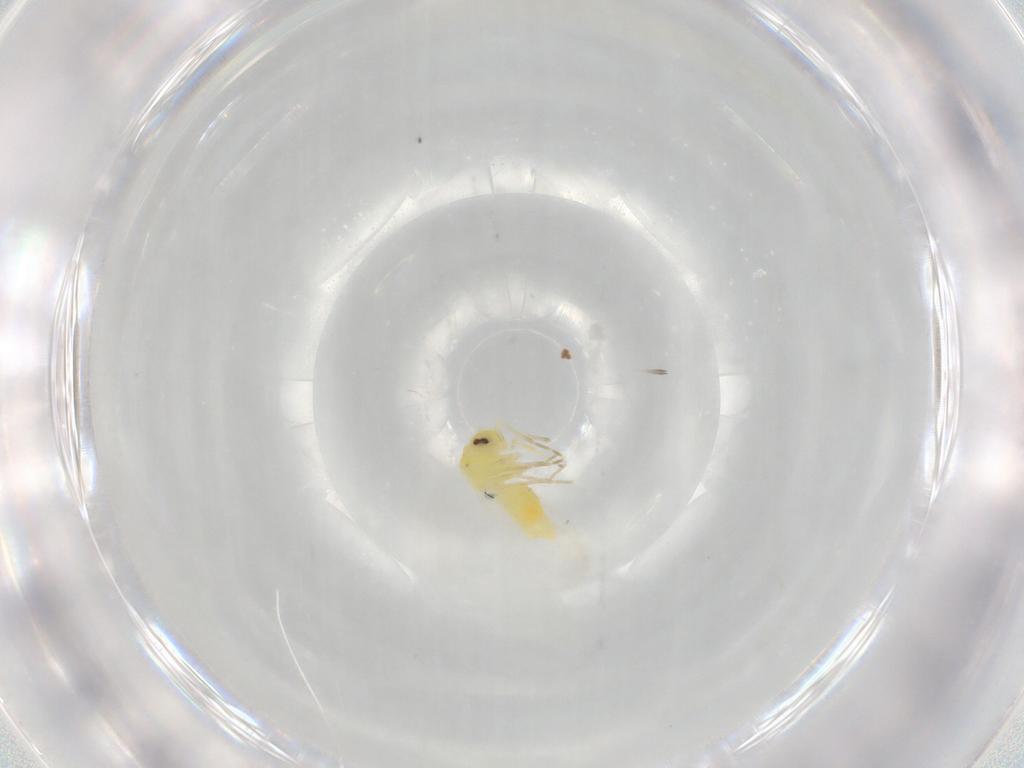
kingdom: Animalia
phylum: Arthropoda
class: Insecta
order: Hemiptera
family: Aleyrodidae
